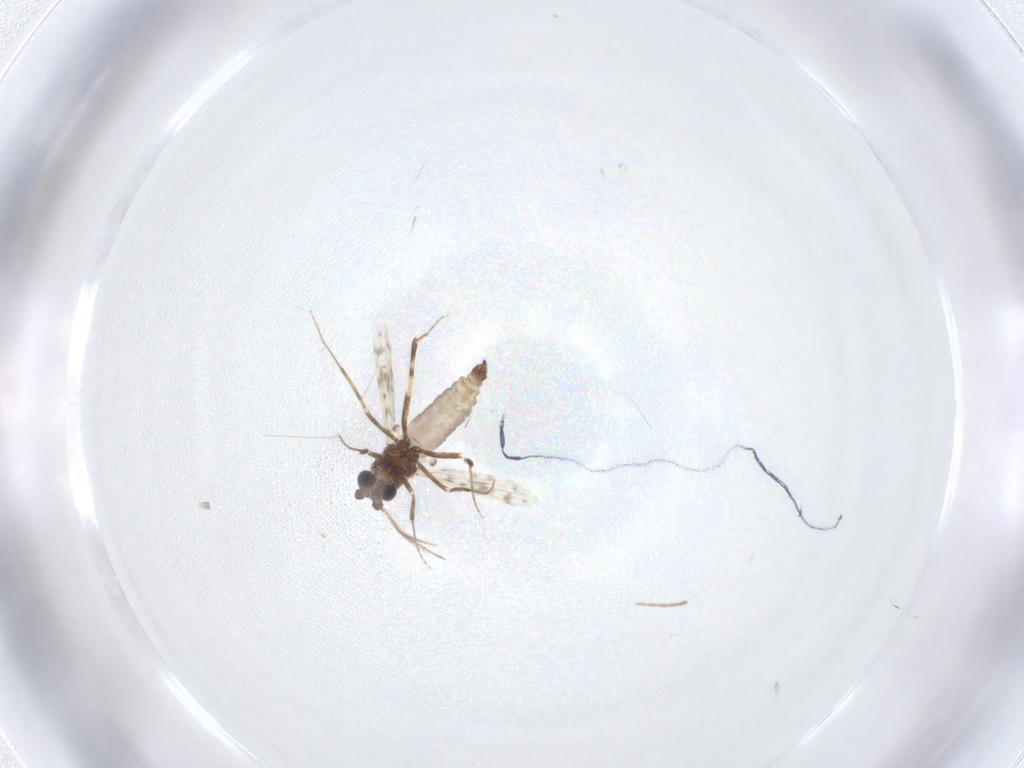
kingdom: Animalia
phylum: Arthropoda
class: Insecta
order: Diptera
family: Ceratopogonidae
